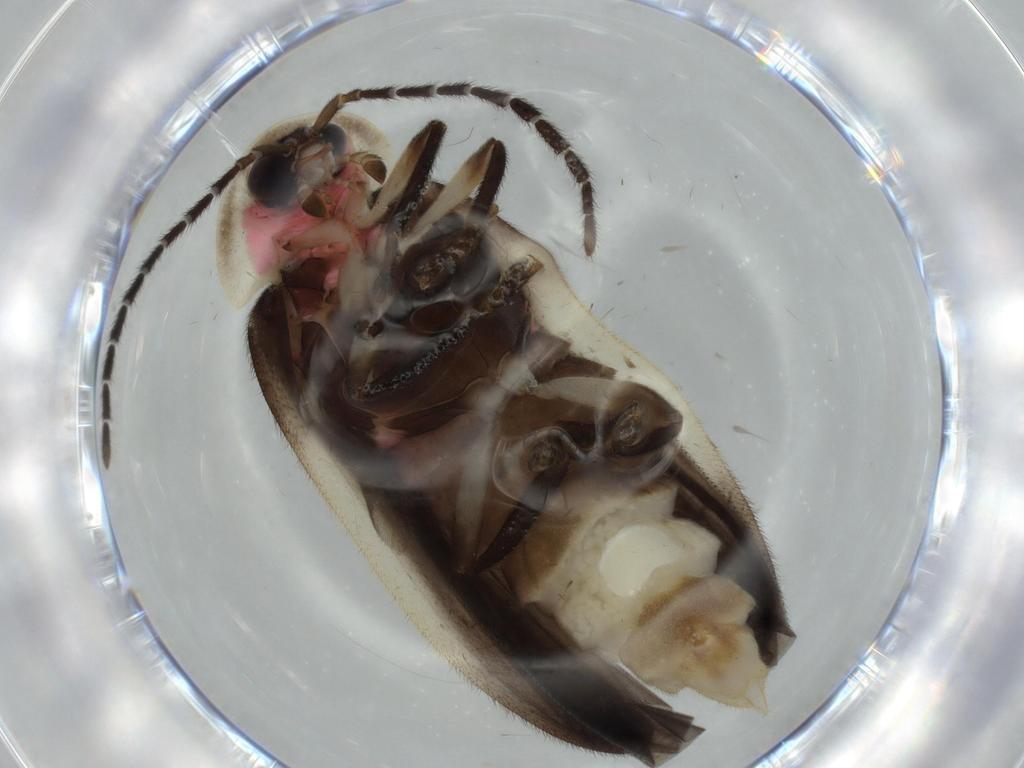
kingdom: Animalia
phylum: Arthropoda
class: Insecta
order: Coleoptera
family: Lampyridae
